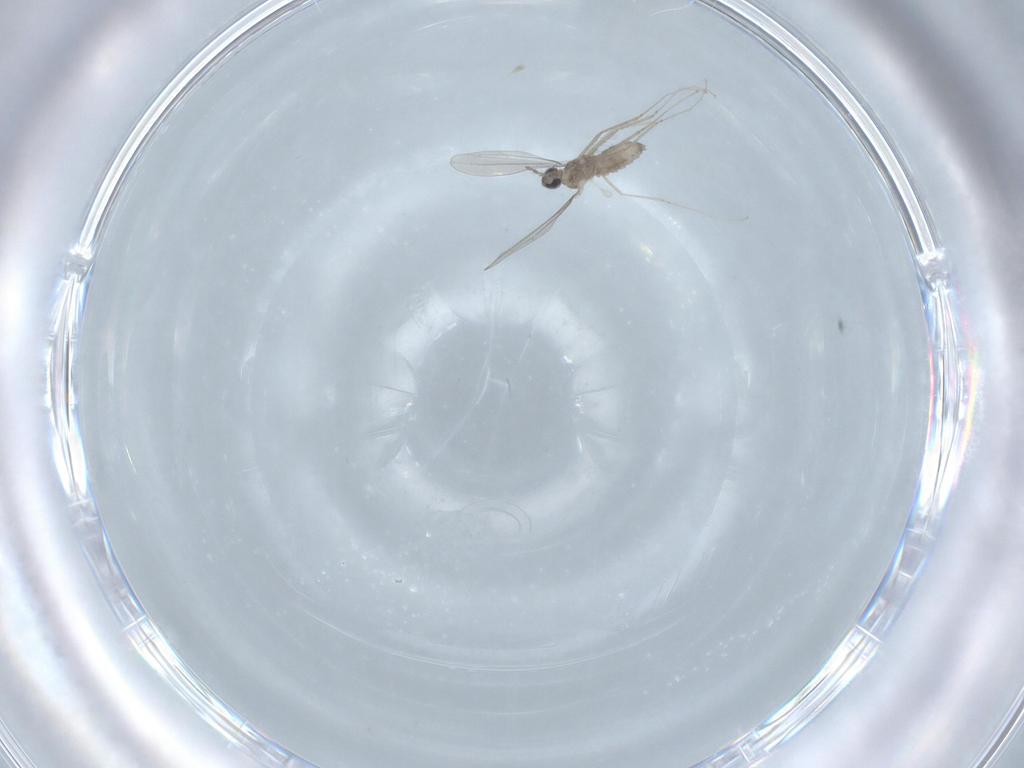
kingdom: Animalia
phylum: Arthropoda
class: Insecta
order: Diptera
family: Cecidomyiidae
